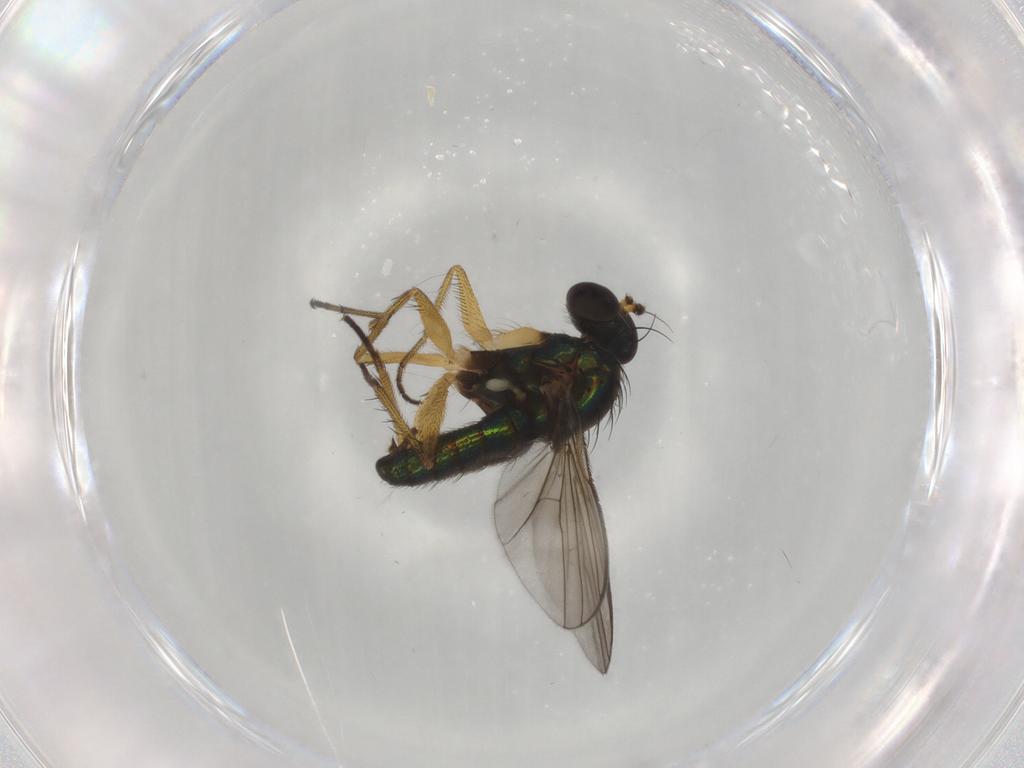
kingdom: Animalia
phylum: Arthropoda
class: Insecta
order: Diptera
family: Dolichopodidae
